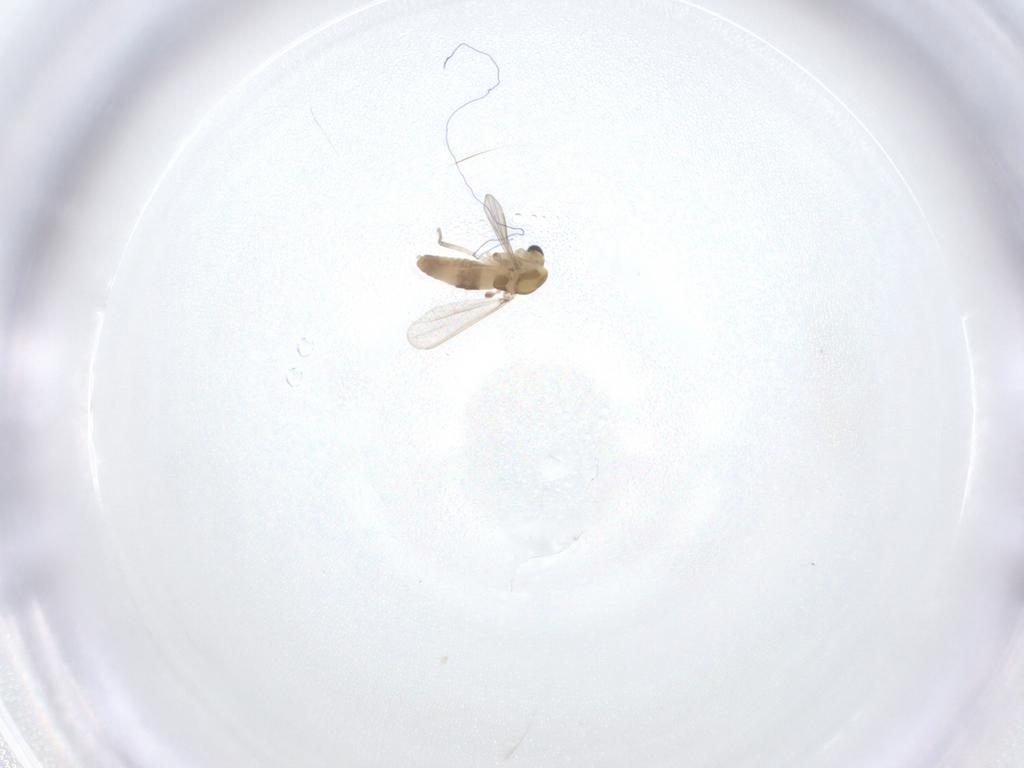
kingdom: Animalia
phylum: Arthropoda
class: Insecta
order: Diptera
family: Chironomidae
